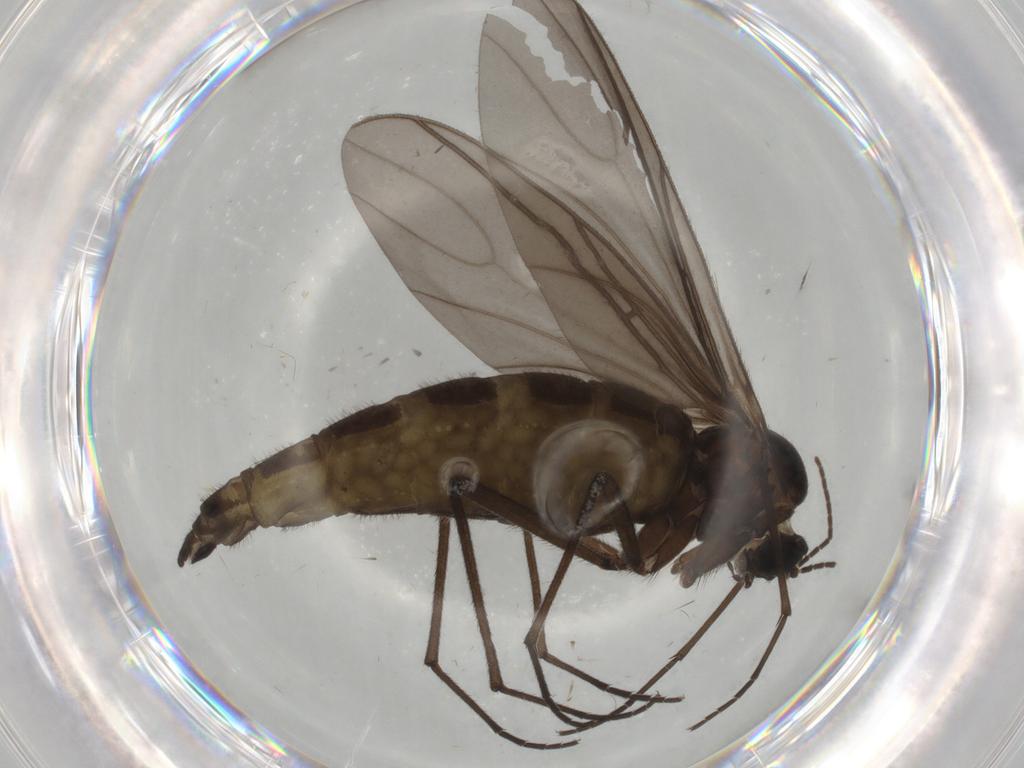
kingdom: Animalia
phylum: Arthropoda
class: Insecta
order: Diptera
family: Sciaridae
